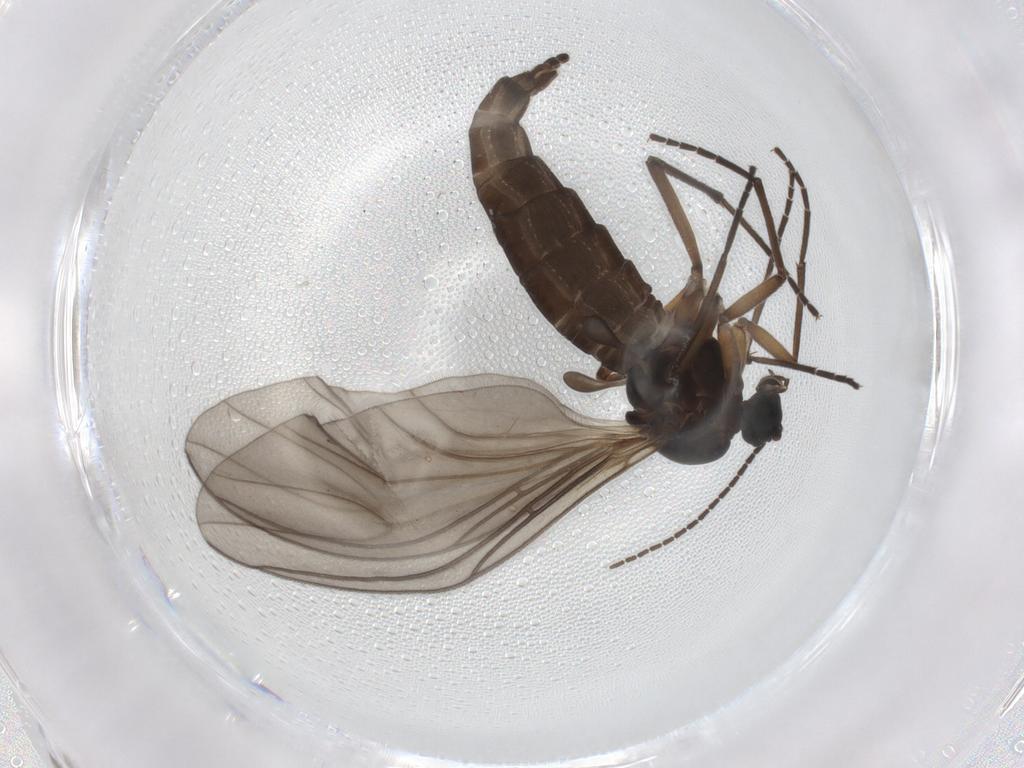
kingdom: Animalia
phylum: Arthropoda
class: Insecta
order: Diptera
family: Sciaridae
